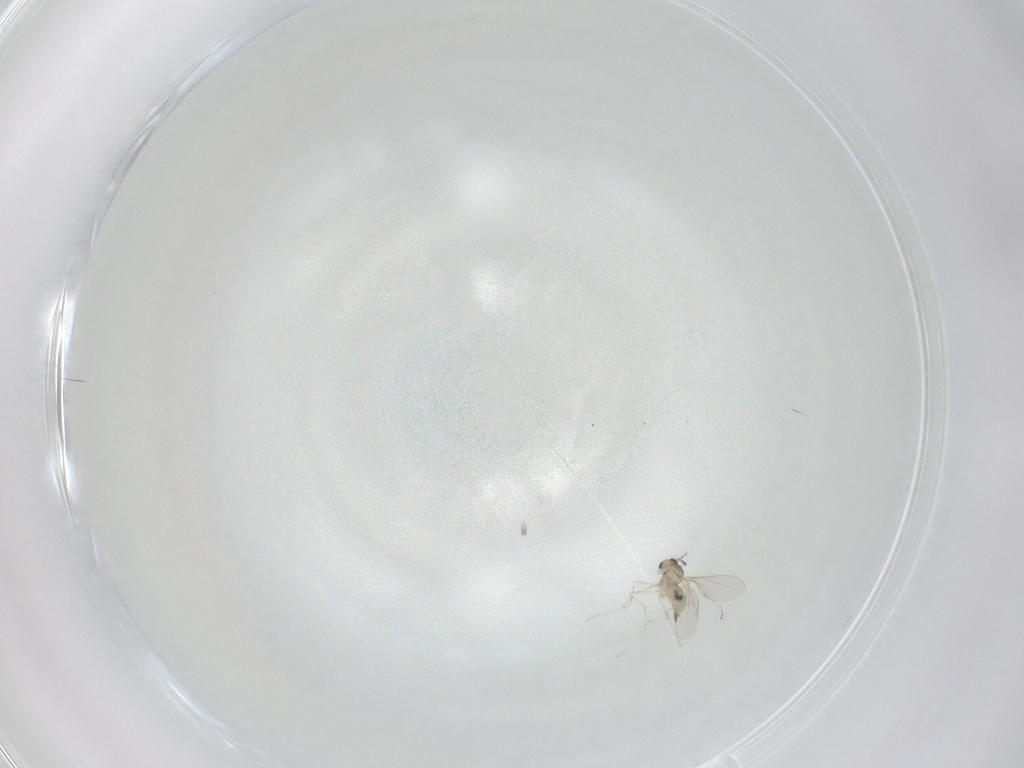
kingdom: Animalia
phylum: Arthropoda
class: Insecta
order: Diptera
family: Cecidomyiidae
